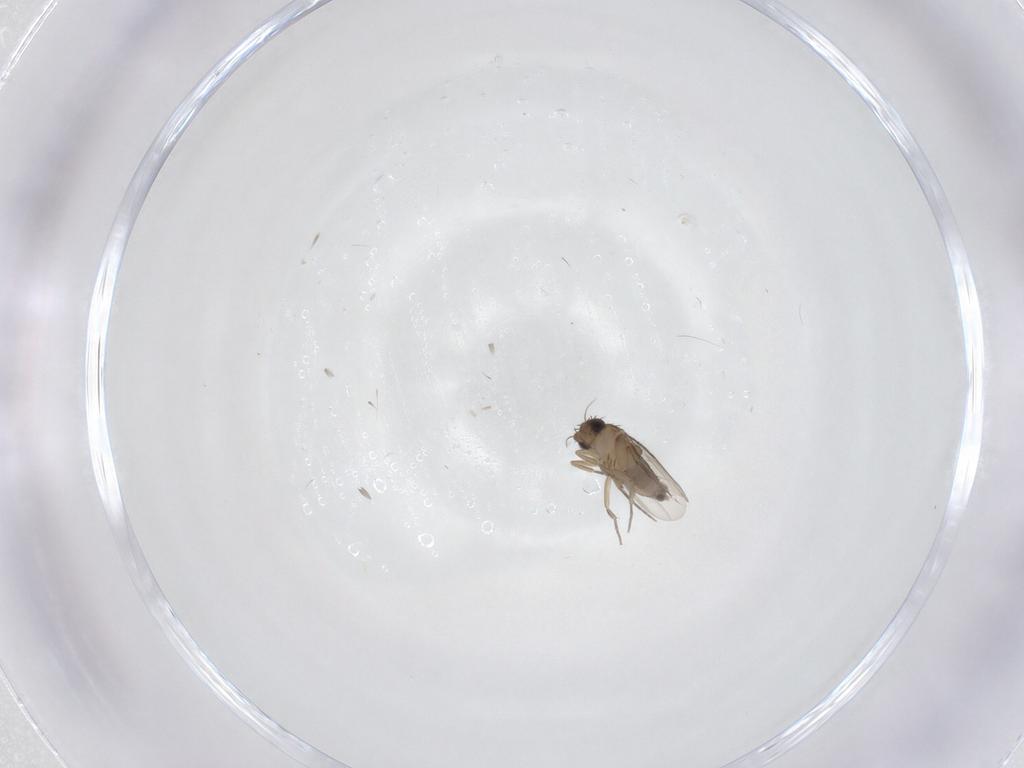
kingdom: Animalia
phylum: Arthropoda
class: Insecta
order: Diptera
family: Phoridae
